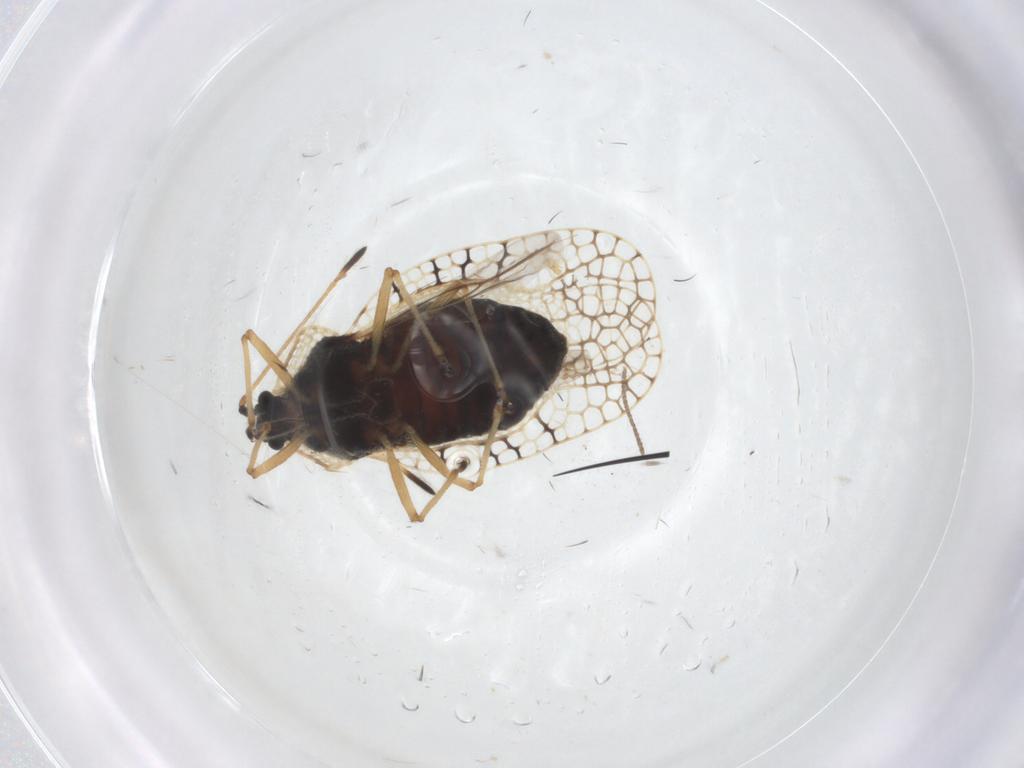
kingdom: Animalia
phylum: Arthropoda
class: Insecta
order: Hemiptera
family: Tingidae
